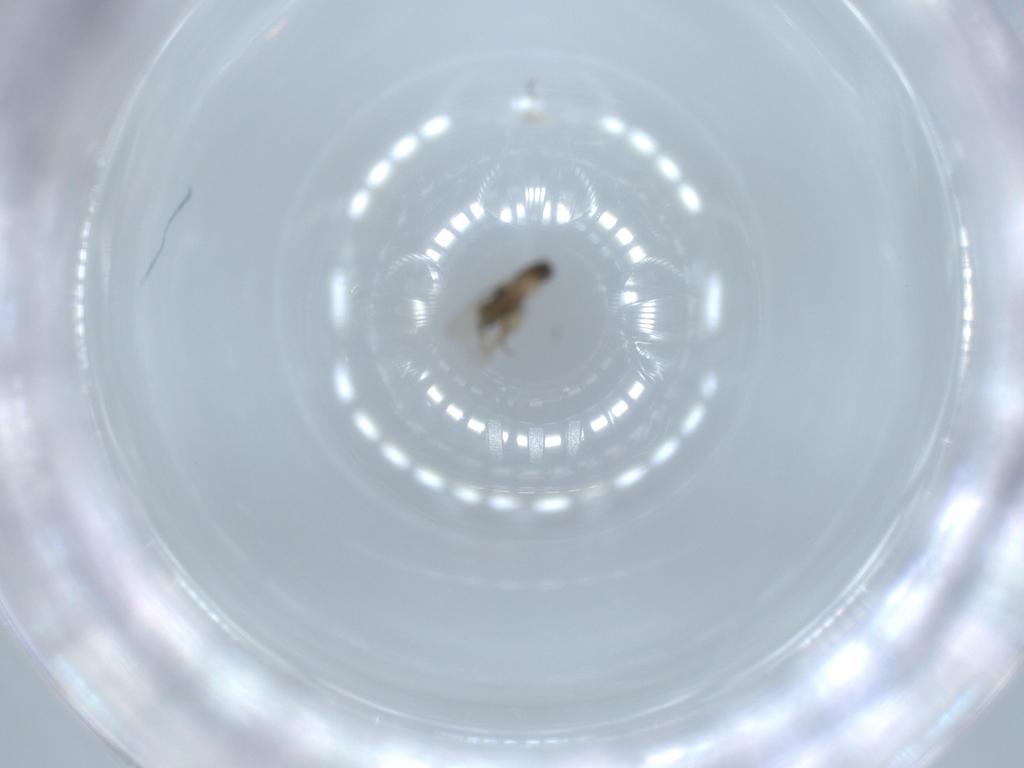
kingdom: Animalia
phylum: Arthropoda
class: Insecta
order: Diptera
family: Phoridae
